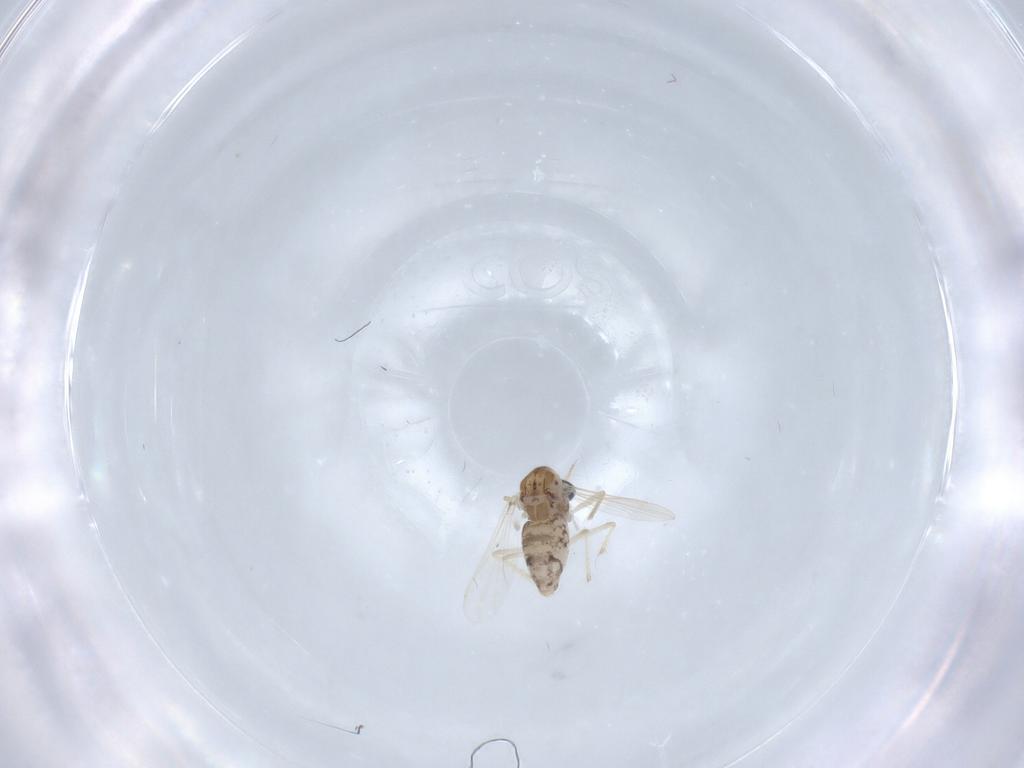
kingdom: Animalia
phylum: Arthropoda
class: Insecta
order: Diptera
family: Chironomidae
